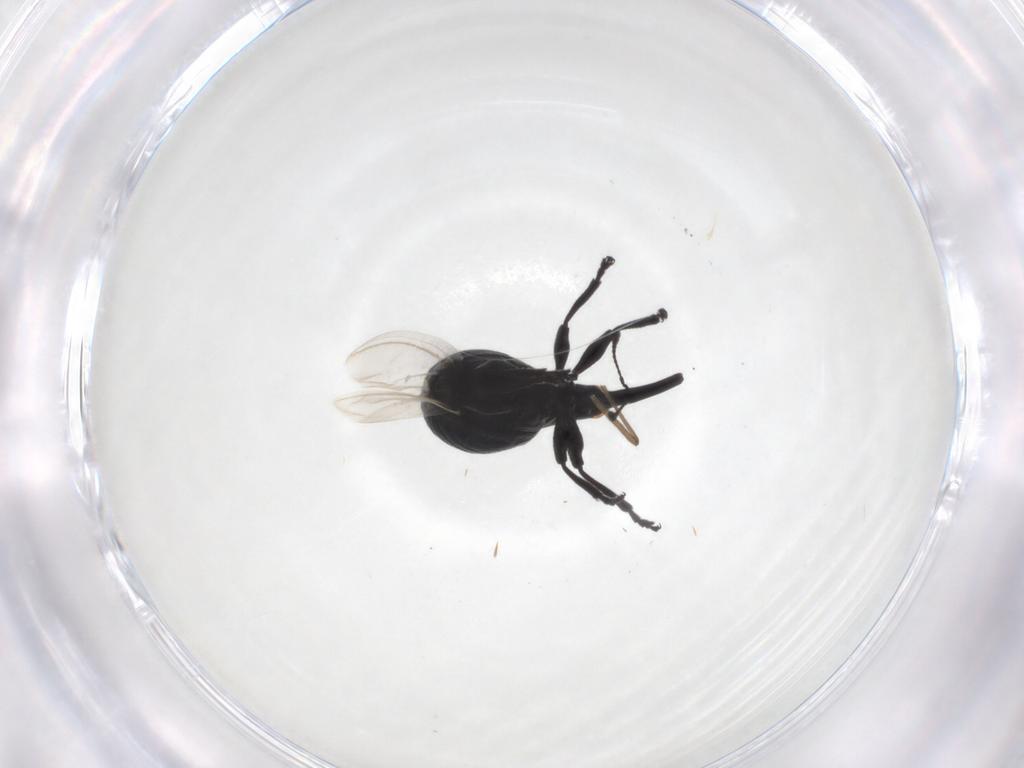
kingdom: Animalia
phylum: Arthropoda
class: Insecta
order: Coleoptera
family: Brentidae
